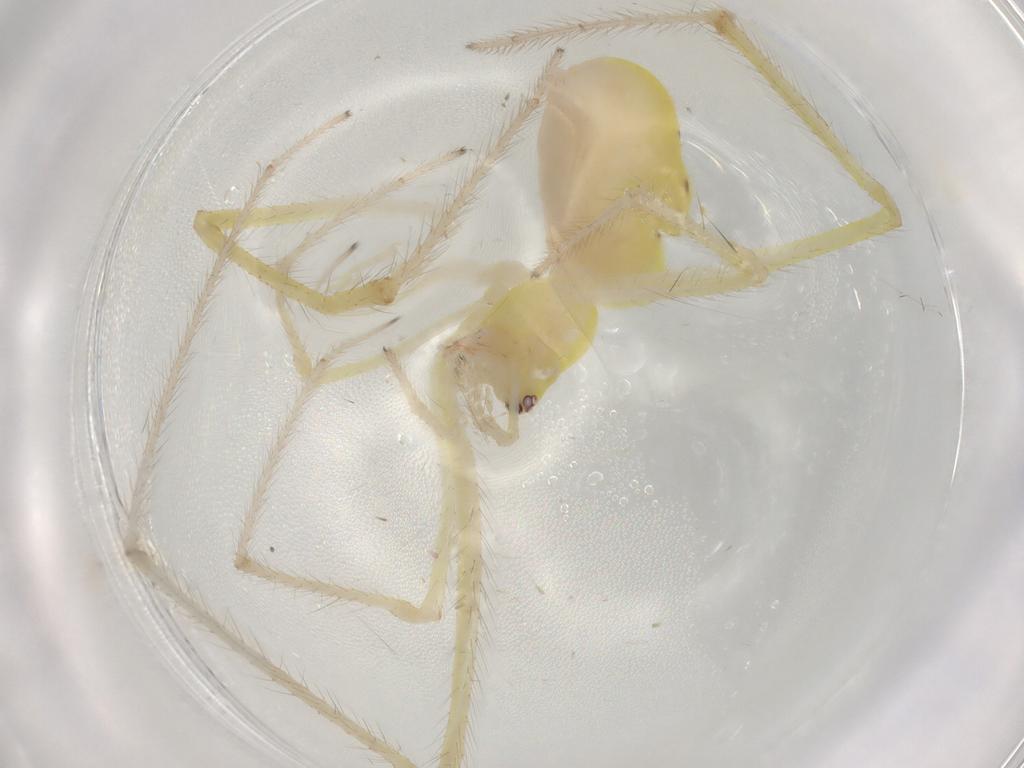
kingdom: Animalia
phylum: Arthropoda
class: Arachnida
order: Araneae
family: Theridiidae
